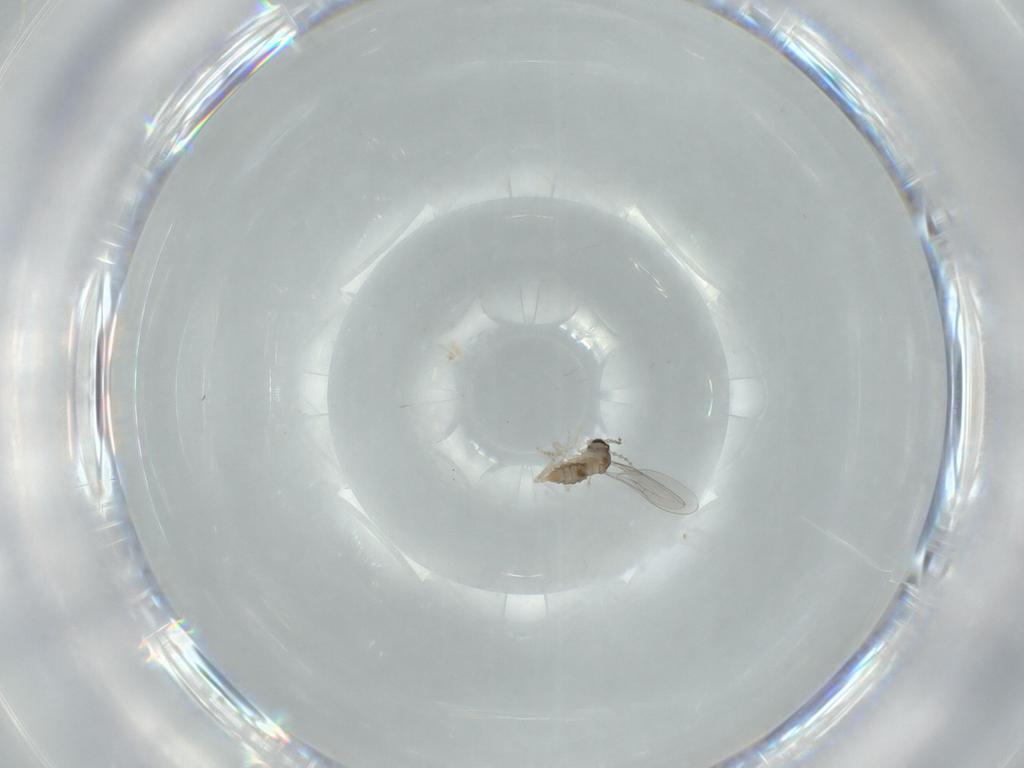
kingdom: Animalia
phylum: Arthropoda
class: Insecta
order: Diptera
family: Cecidomyiidae
